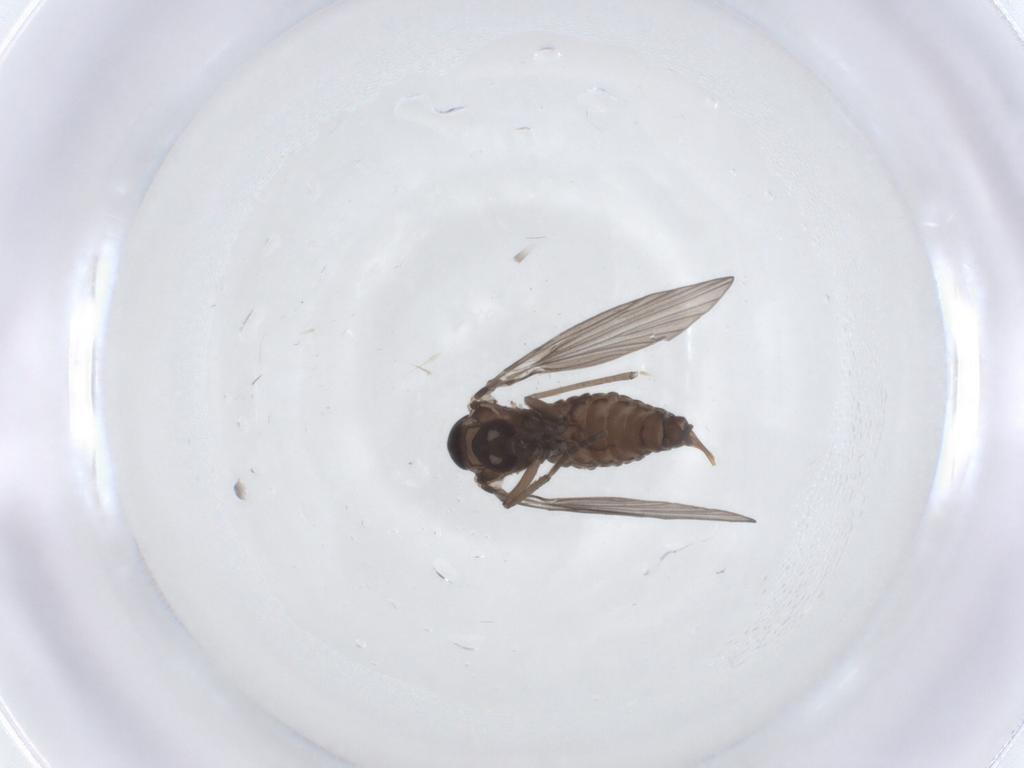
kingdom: Animalia
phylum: Arthropoda
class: Insecta
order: Diptera
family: Psychodidae
